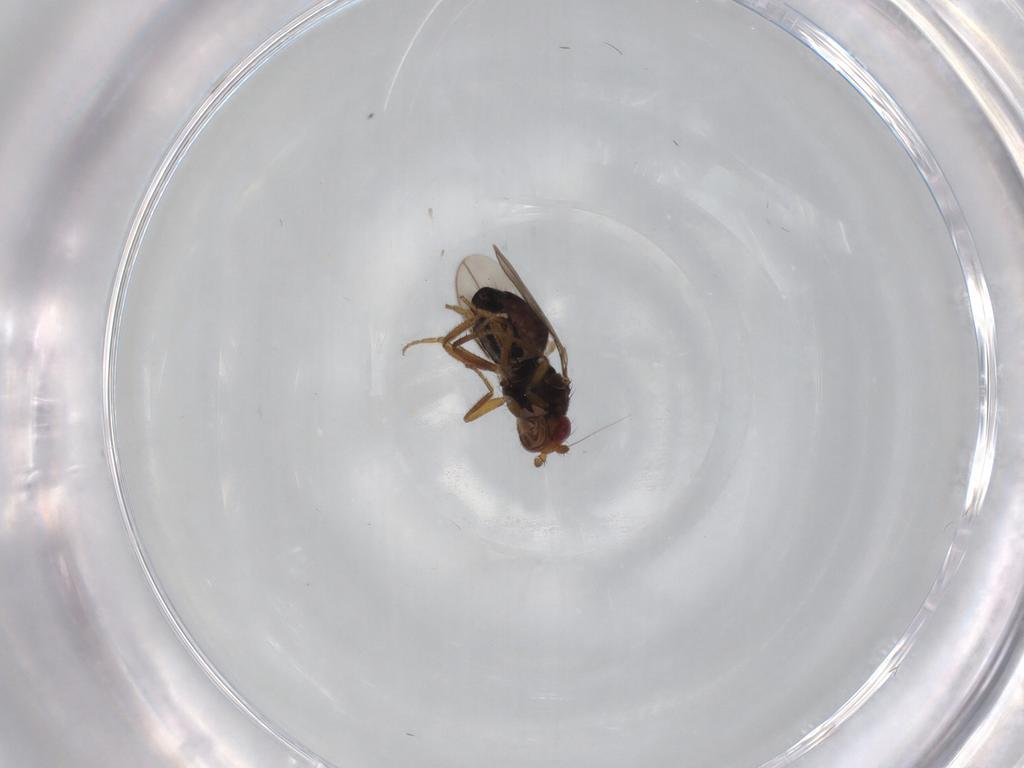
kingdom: Animalia
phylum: Arthropoda
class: Insecta
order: Diptera
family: Sphaeroceridae
